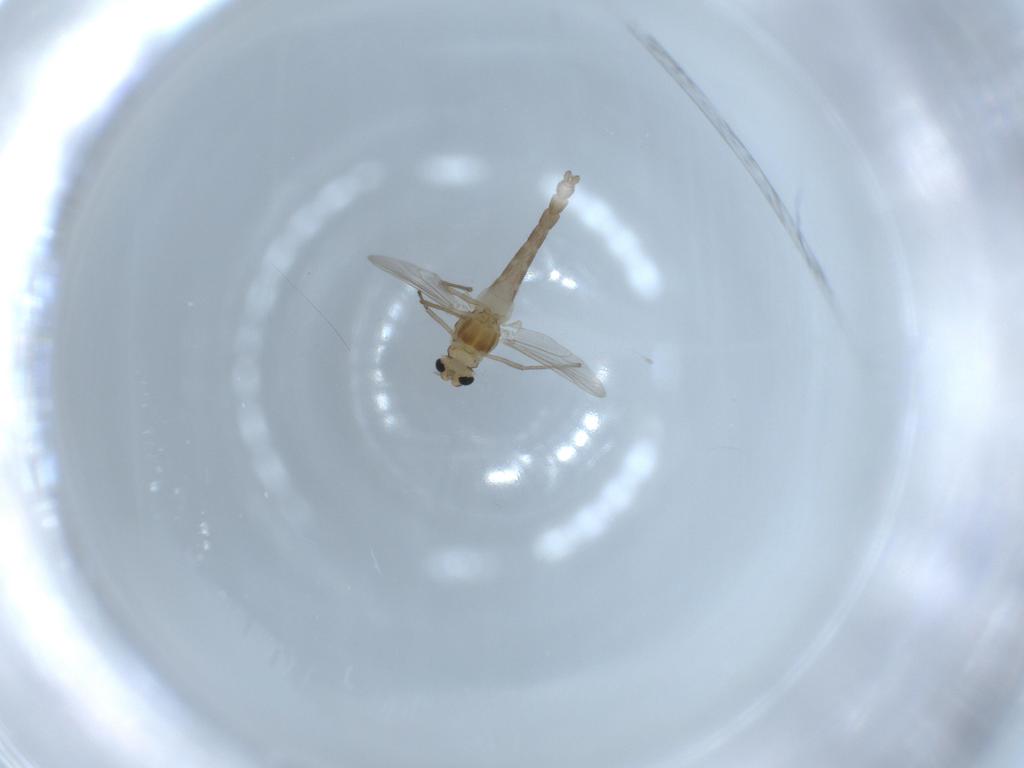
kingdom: Animalia
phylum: Arthropoda
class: Insecta
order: Diptera
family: Chironomidae
